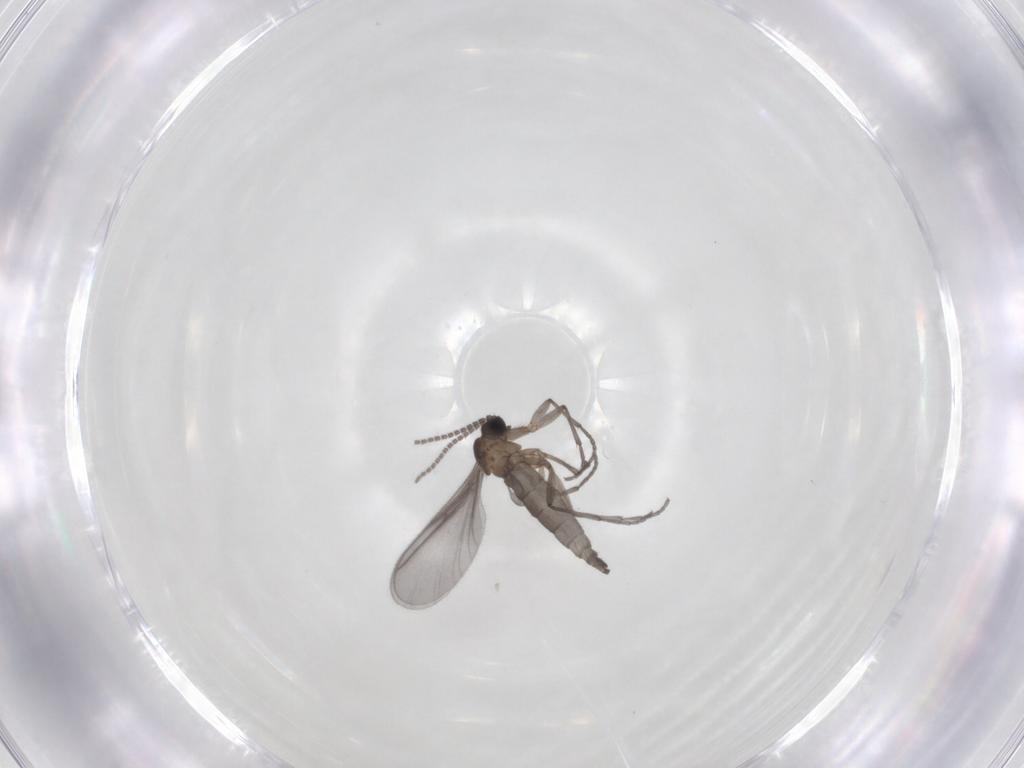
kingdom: Animalia
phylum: Arthropoda
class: Insecta
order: Diptera
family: Sciaridae
